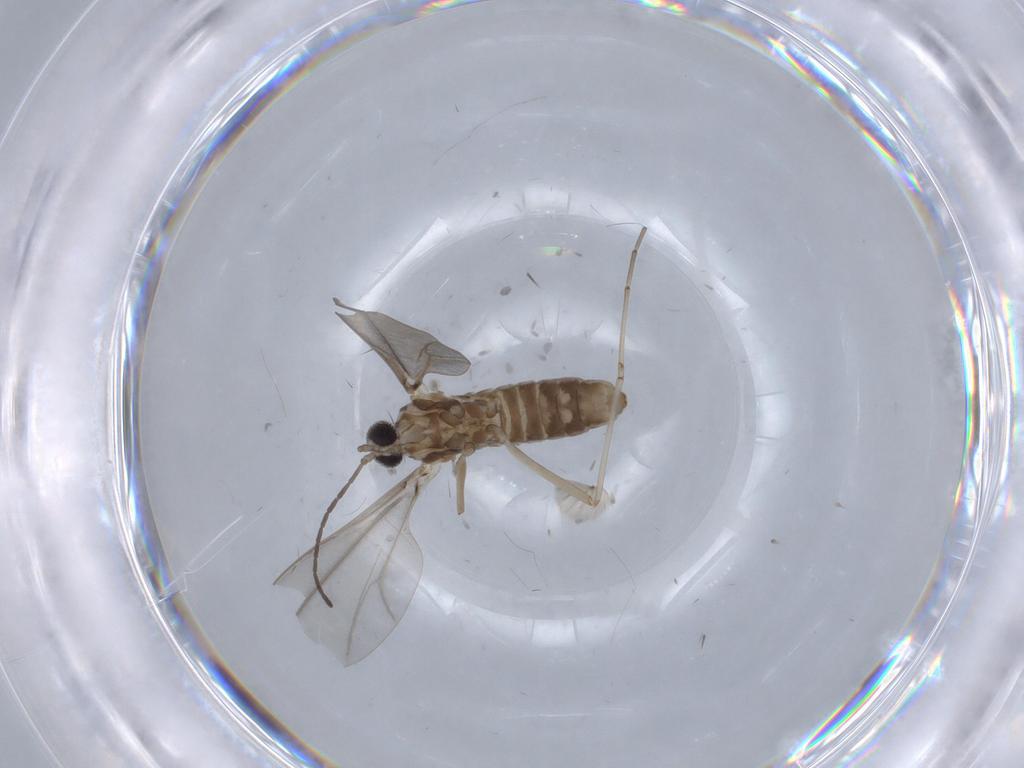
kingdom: Animalia
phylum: Arthropoda
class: Insecta
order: Diptera
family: Cecidomyiidae
